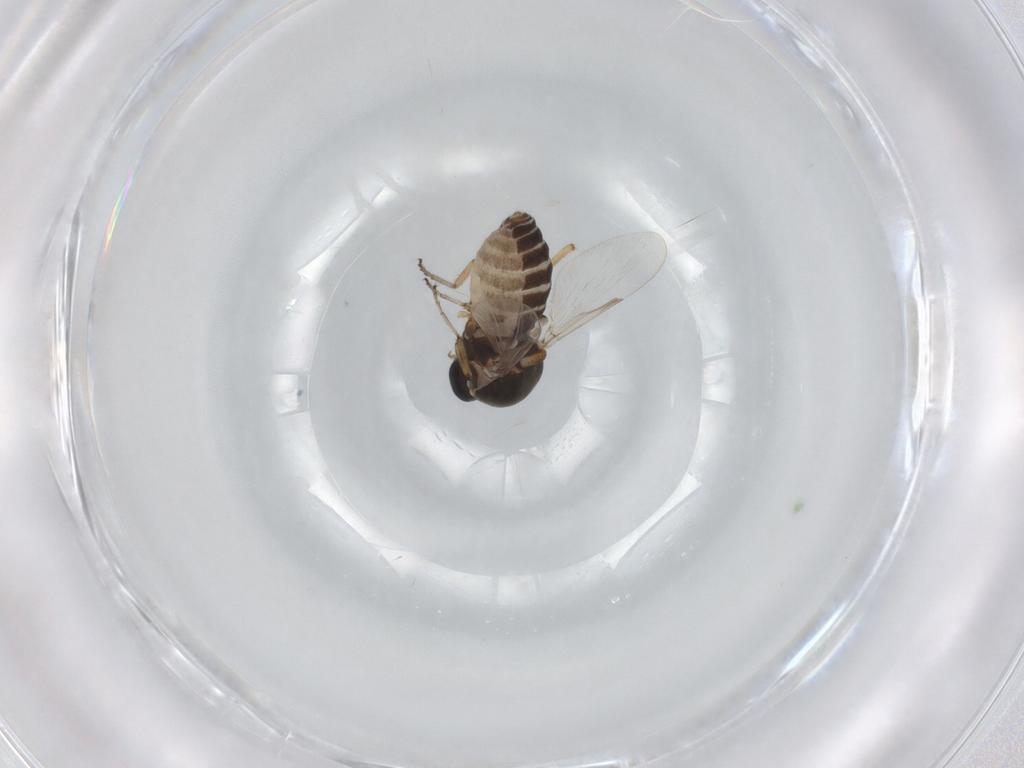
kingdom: Animalia
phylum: Arthropoda
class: Insecta
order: Diptera
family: Ceratopogonidae
